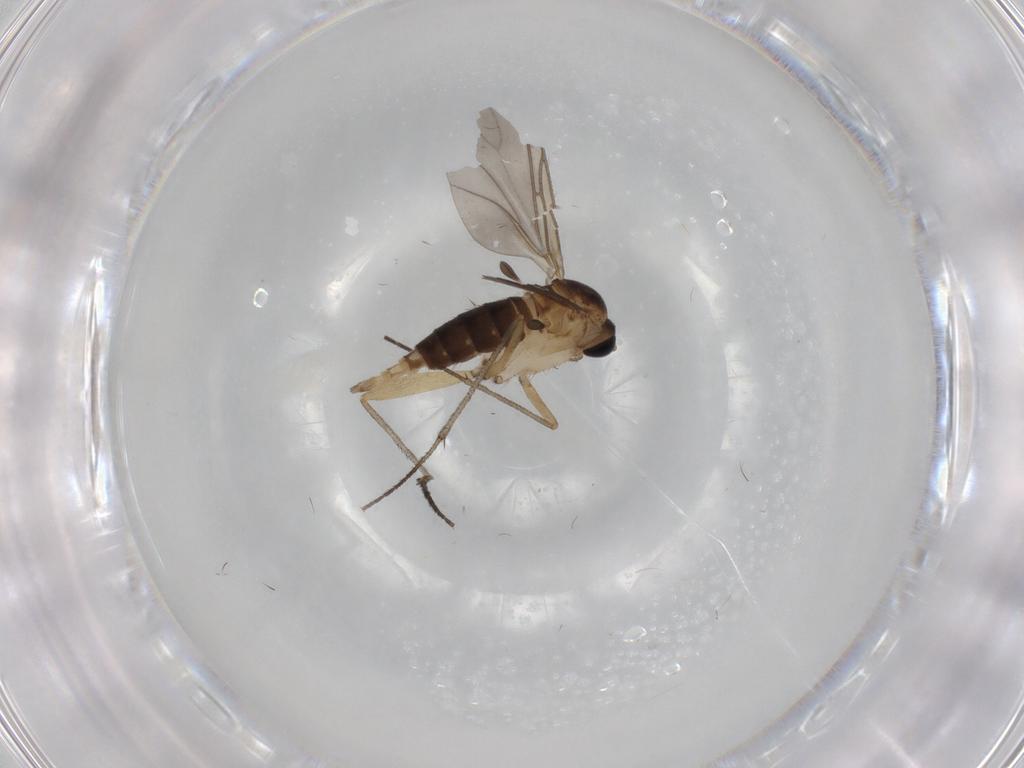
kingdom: Animalia
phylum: Arthropoda
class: Insecta
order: Diptera
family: Sciaridae
